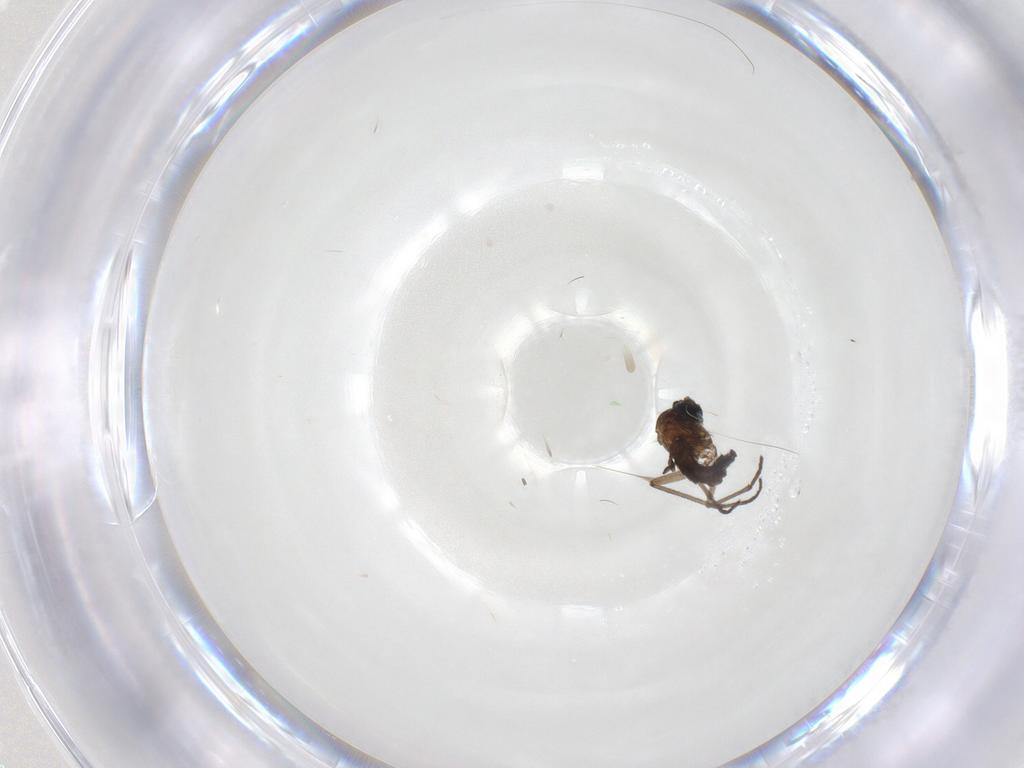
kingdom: Animalia
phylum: Arthropoda
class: Insecta
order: Diptera
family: Sciaridae
